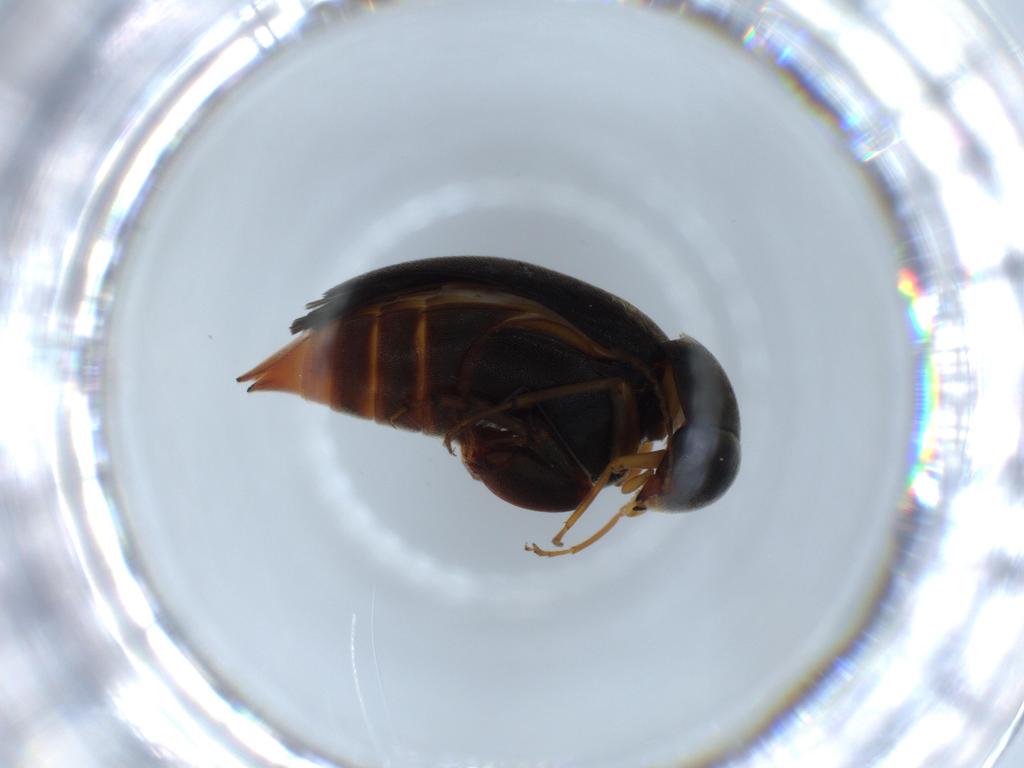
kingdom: Animalia
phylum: Arthropoda
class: Insecta
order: Coleoptera
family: Mordellidae
